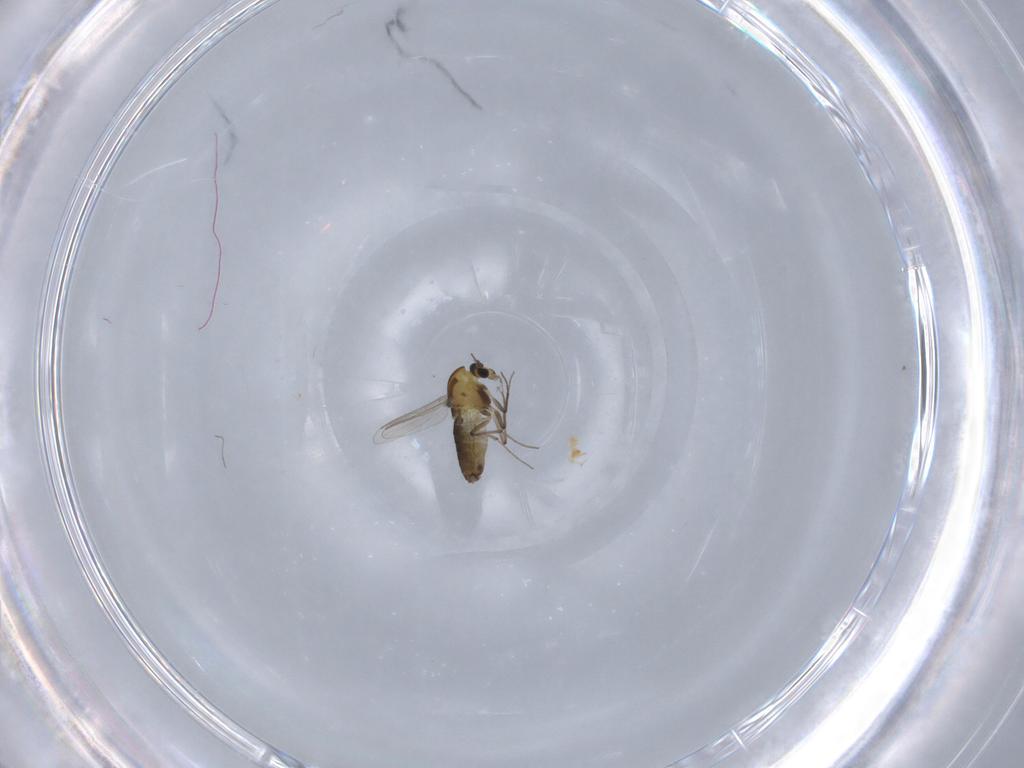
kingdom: Animalia
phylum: Arthropoda
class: Insecta
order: Diptera
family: Chironomidae
